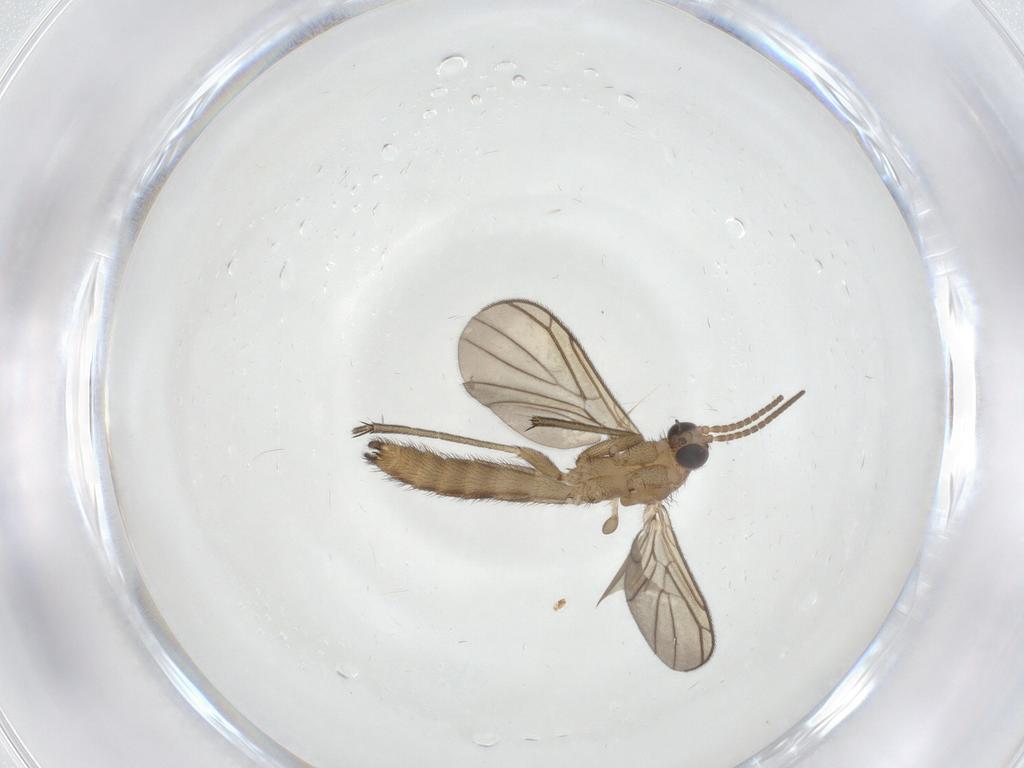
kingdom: Animalia
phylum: Arthropoda
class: Insecta
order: Diptera
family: Keroplatidae
